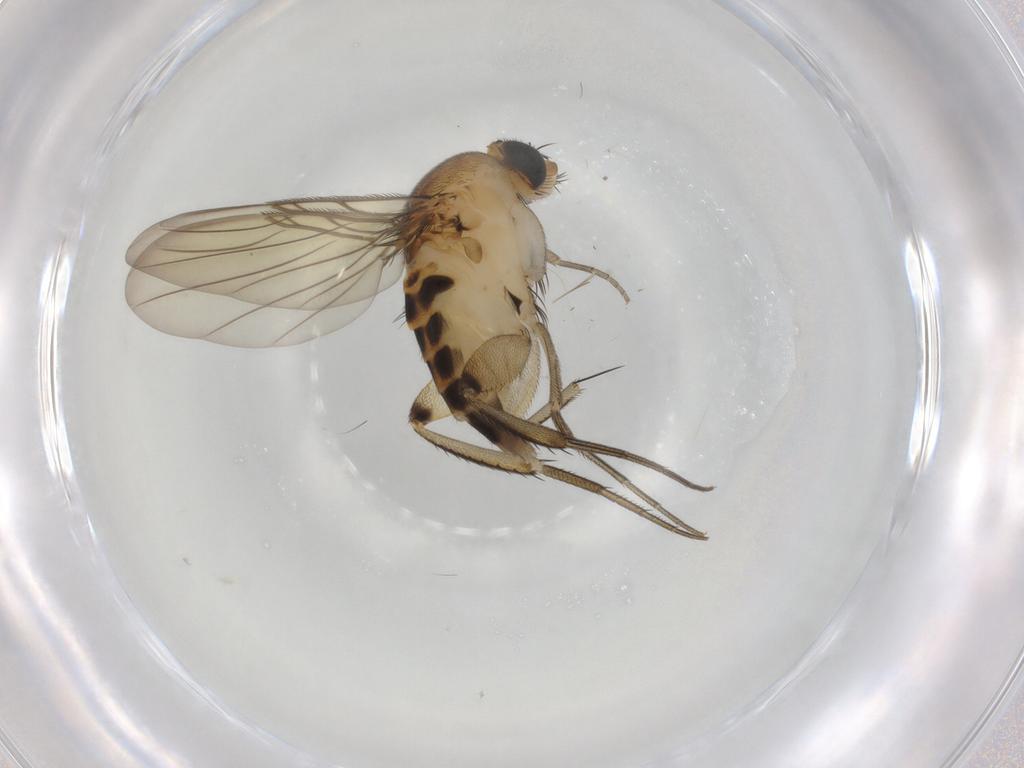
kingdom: Animalia
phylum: Arthropoda
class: Insecta
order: Diptera
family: Phoridae
